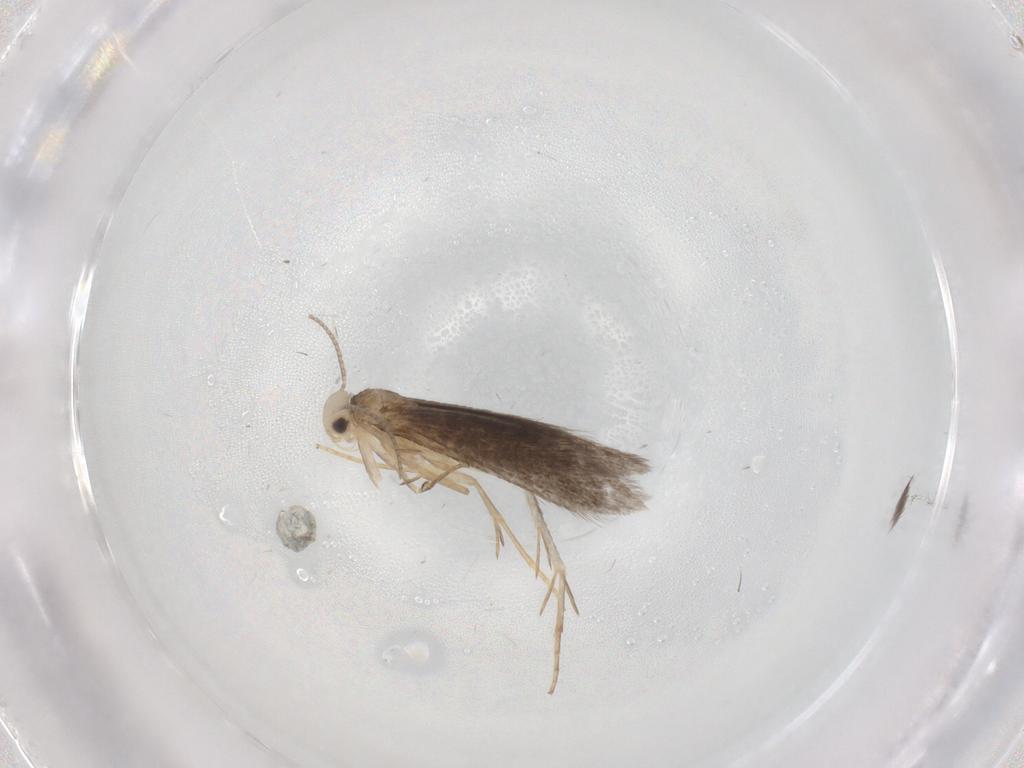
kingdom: Animalia
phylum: Arthropoda
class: Insecta
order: Lepidoptera
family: Schreckensteiniidae
